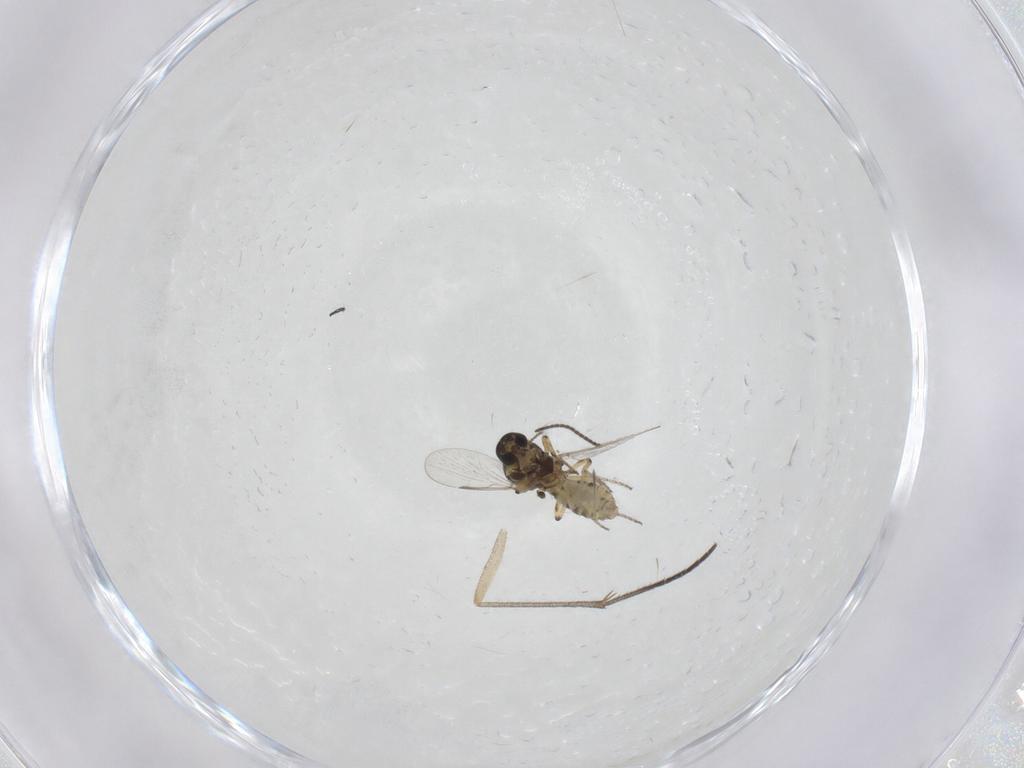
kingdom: Animalia
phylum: Arthropoda
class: Insecta
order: Diptera
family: Ceratopogonidae
